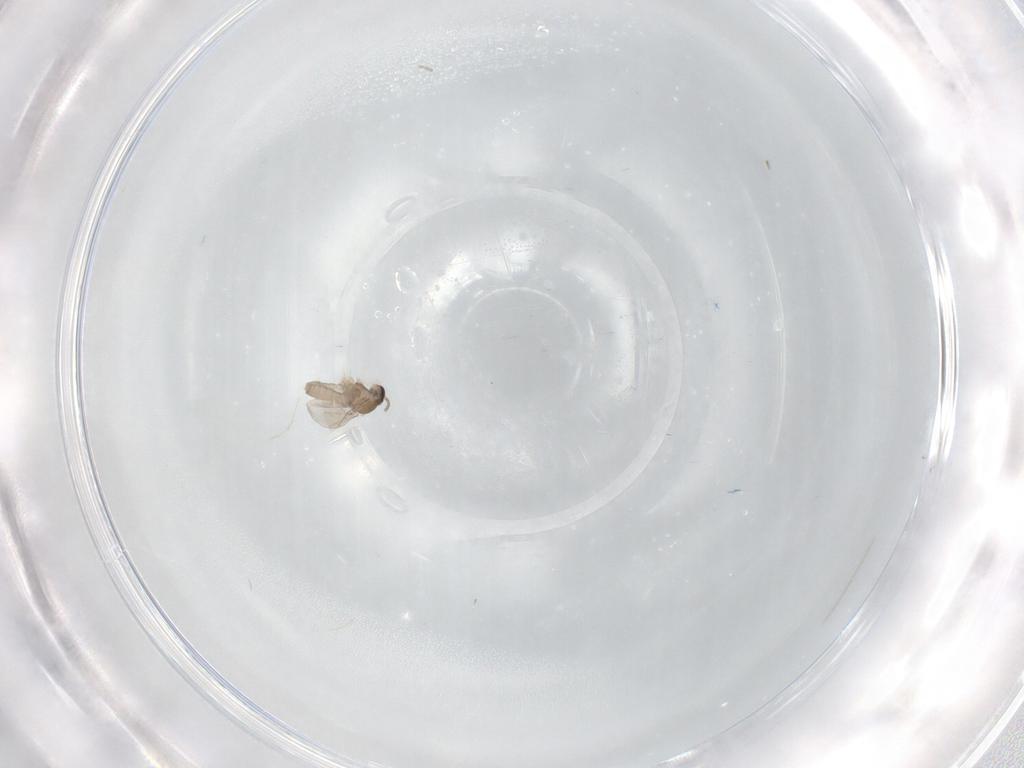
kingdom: Animalia
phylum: Arthropoda
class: Insecta
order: Diptera
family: Cecidomyiidae
